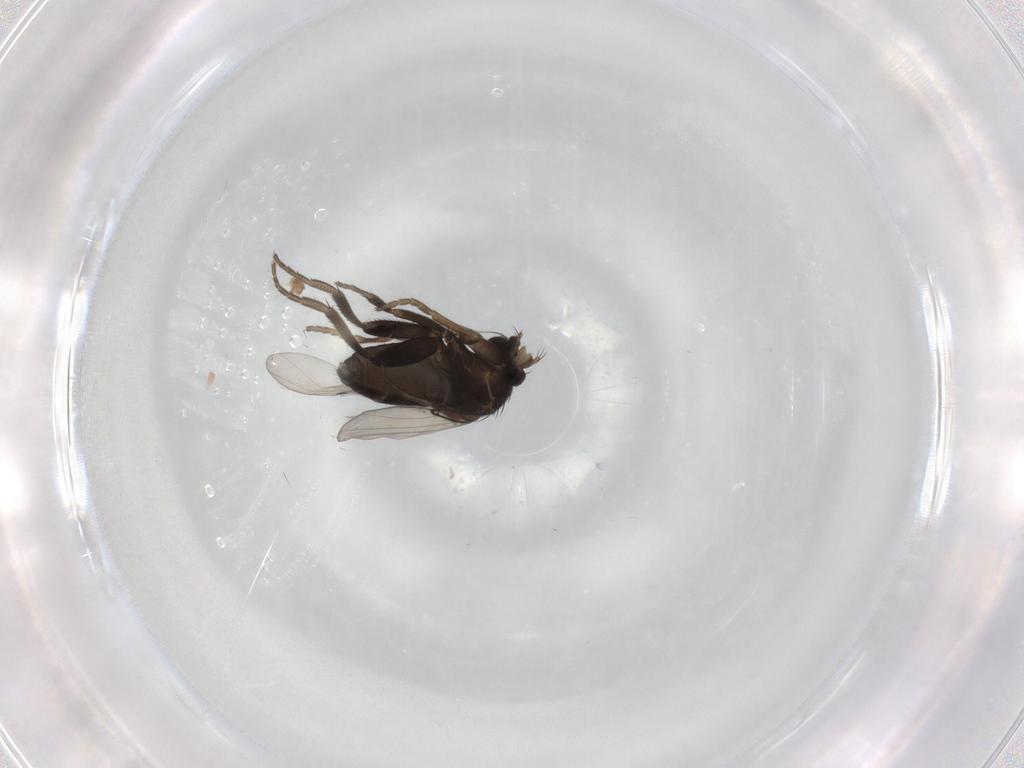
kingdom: Animalia
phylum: Arthropoda
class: Insecta
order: Diptera
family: Phoridae
